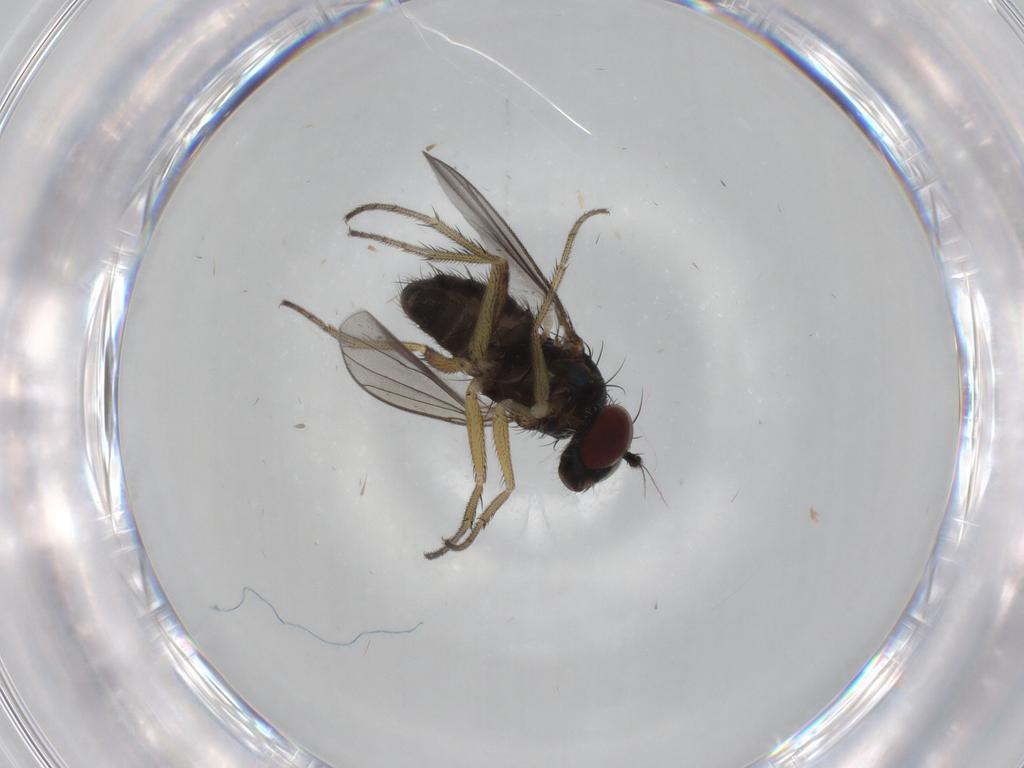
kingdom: Animalia
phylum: Arthropoda
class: Insecta
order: Diptera
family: Dolichopodidae
